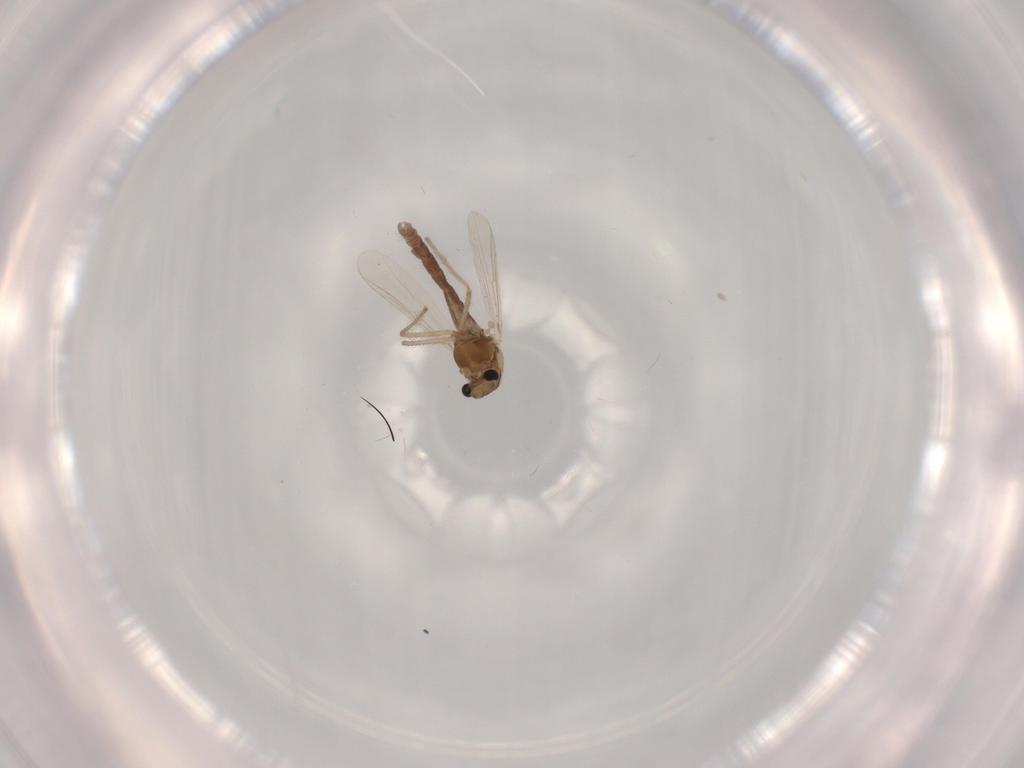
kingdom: Animalia
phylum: Arthropoda
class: Insecta
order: Diptera
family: Chironomidae
